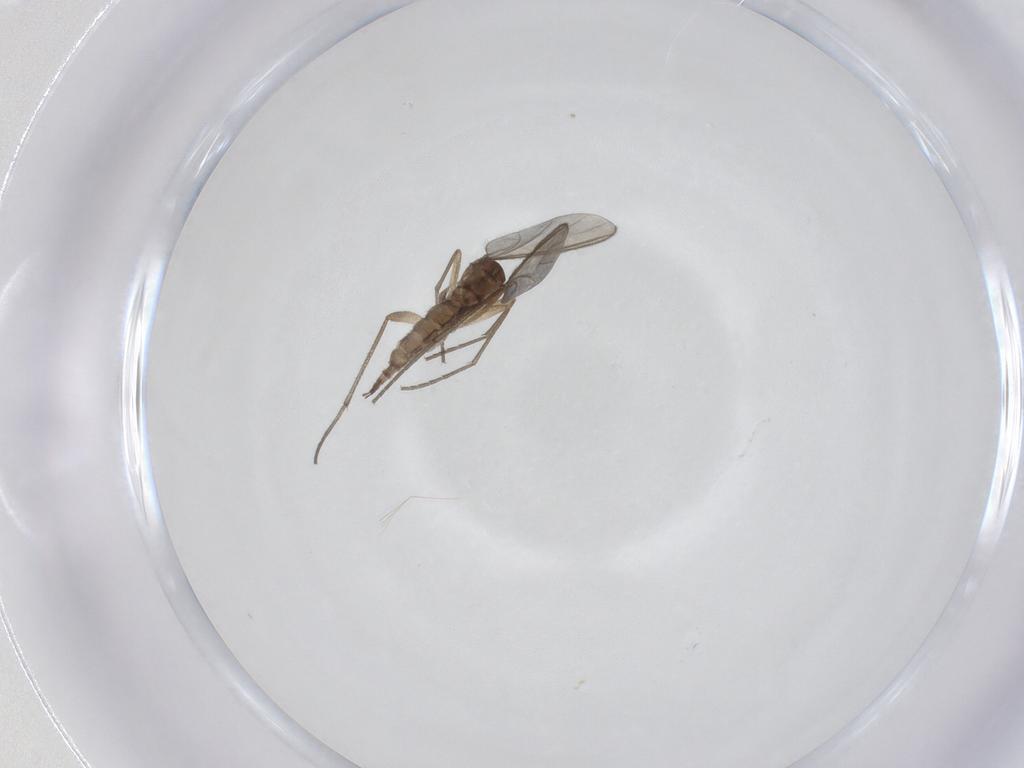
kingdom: Animalia
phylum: Arthropoda
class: Insecta
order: Diptera
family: Sciaridae
